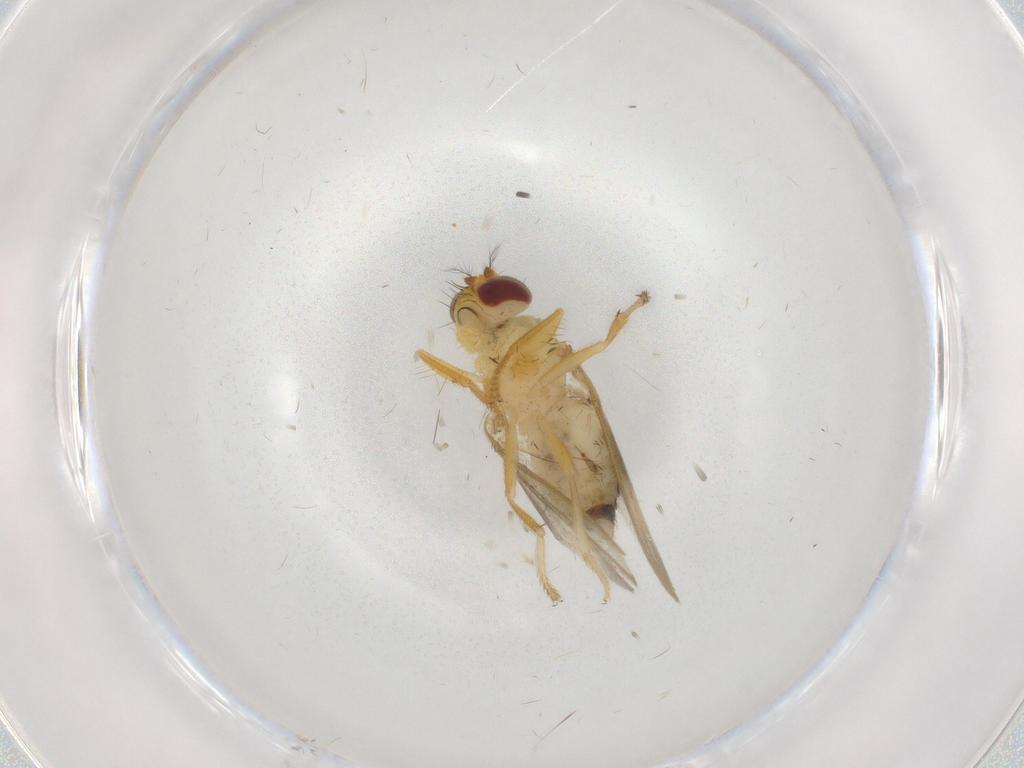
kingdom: Animalia
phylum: Arthropoda
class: Insecta
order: Diptera
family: Periscelididae
